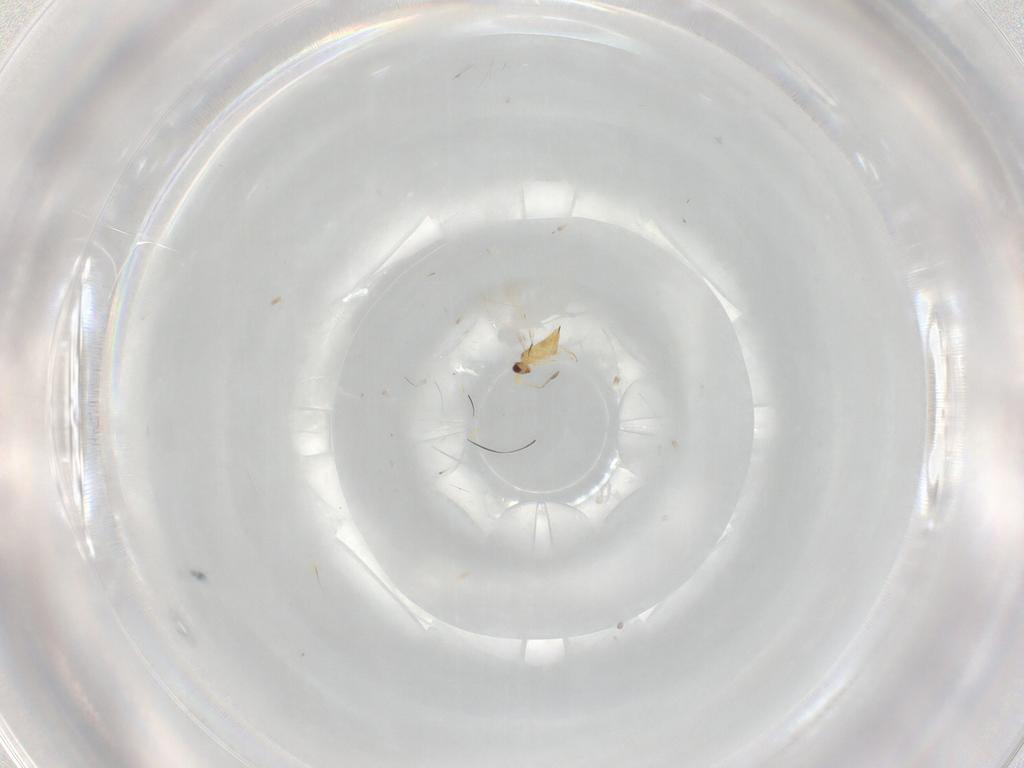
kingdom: Animalia
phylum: Arthropoda
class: Insecta
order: Hymenoptera
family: Mymaridae
